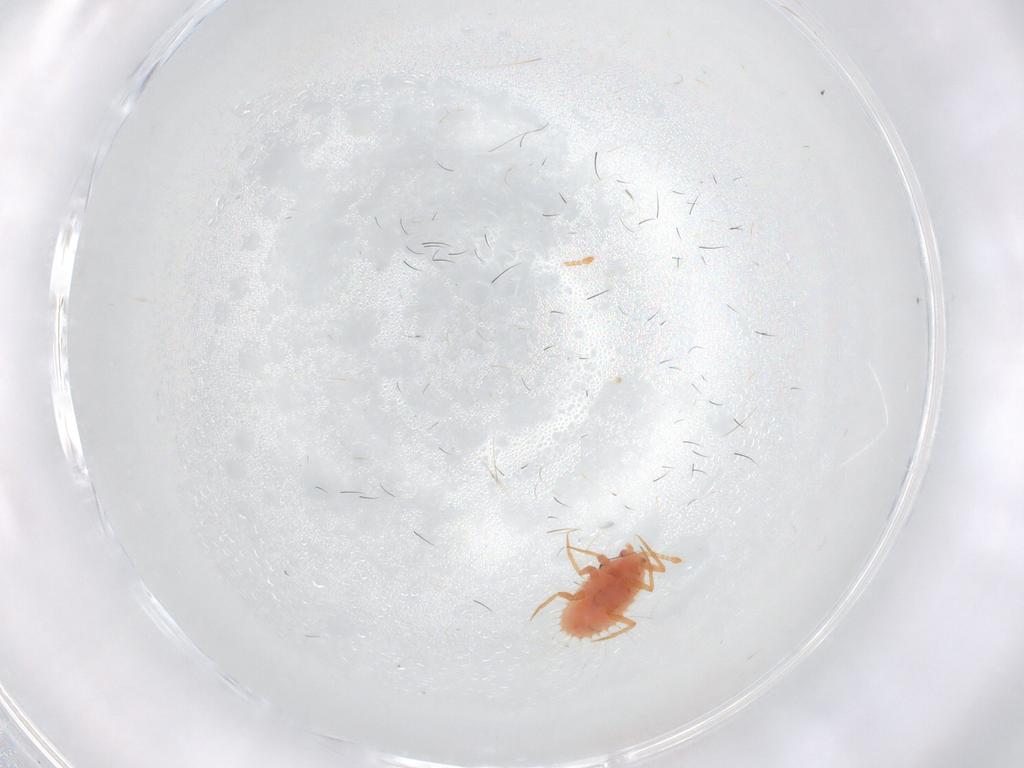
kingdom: Animalia
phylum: Arthropoda
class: Insecta
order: Hemiptera
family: Coccoidea_incertae_sedis
